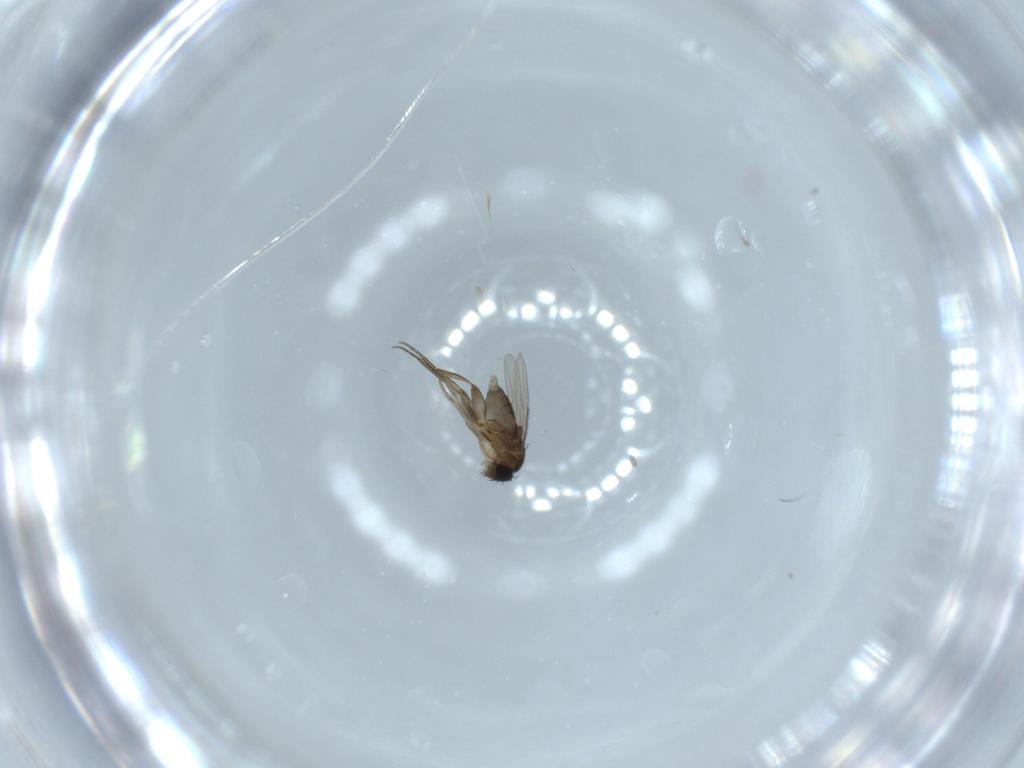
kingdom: Animalia
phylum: Arthropoda
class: Insecta
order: Diptera
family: Phoridae
